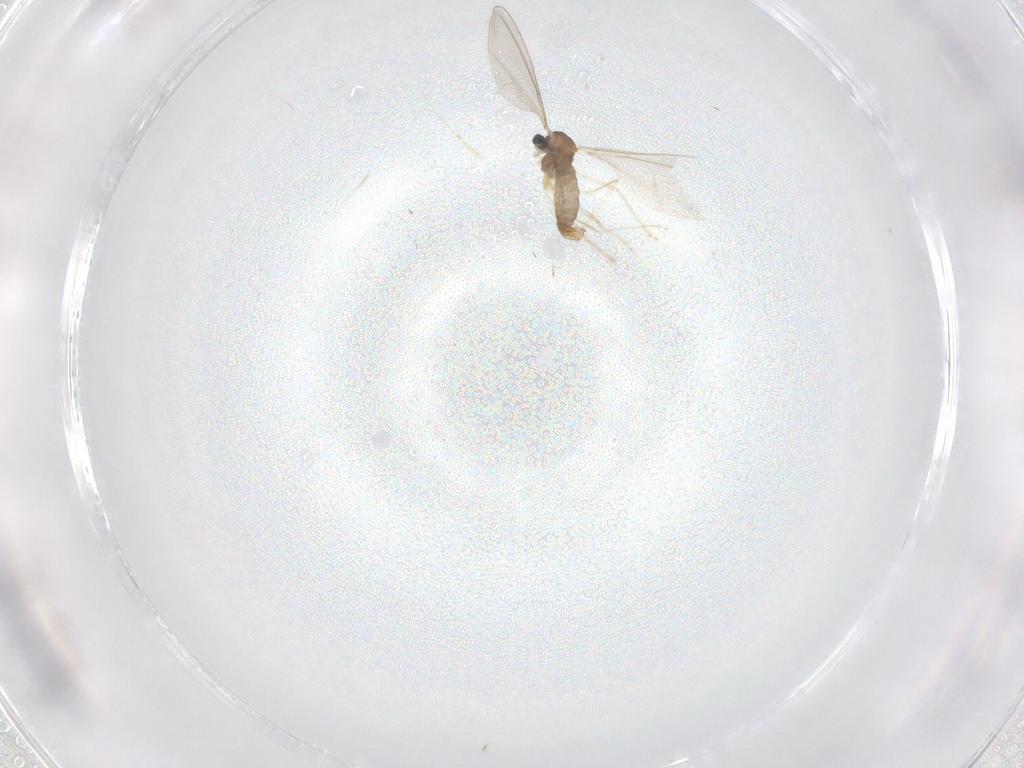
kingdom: Animalia
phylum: Arthropoda
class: Insecta
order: Diptera
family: Cecidomyiidae
